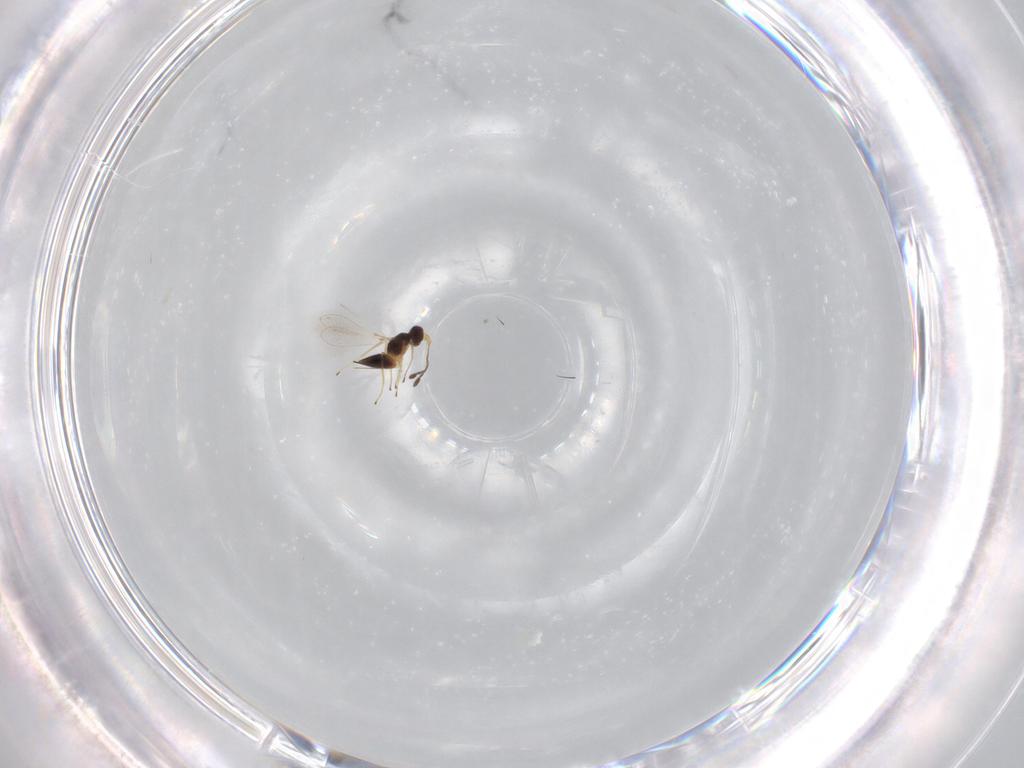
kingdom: Animalia
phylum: Arthropoda
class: Insecta
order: Hymenoptera
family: Mymaridae
